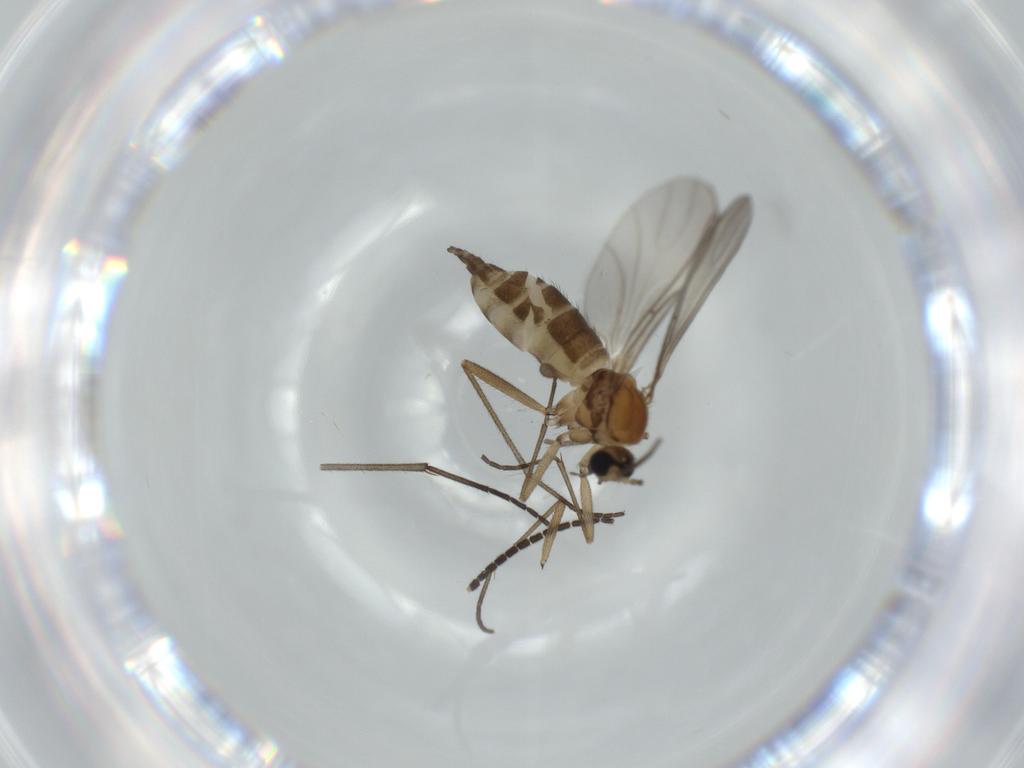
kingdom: Animalia
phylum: Arthropoda
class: Insecta
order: Diptera
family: Sciaridae
